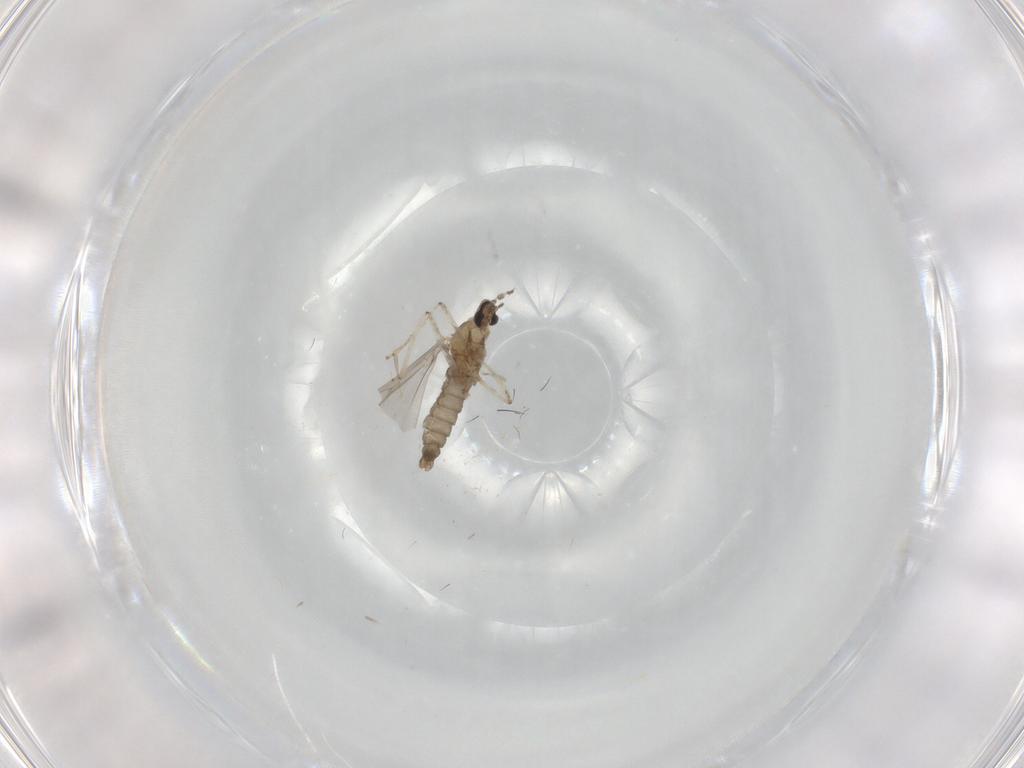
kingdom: Animalia
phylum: Arthropoda
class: Insecta
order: Diptera
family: Cecidomyiidae
